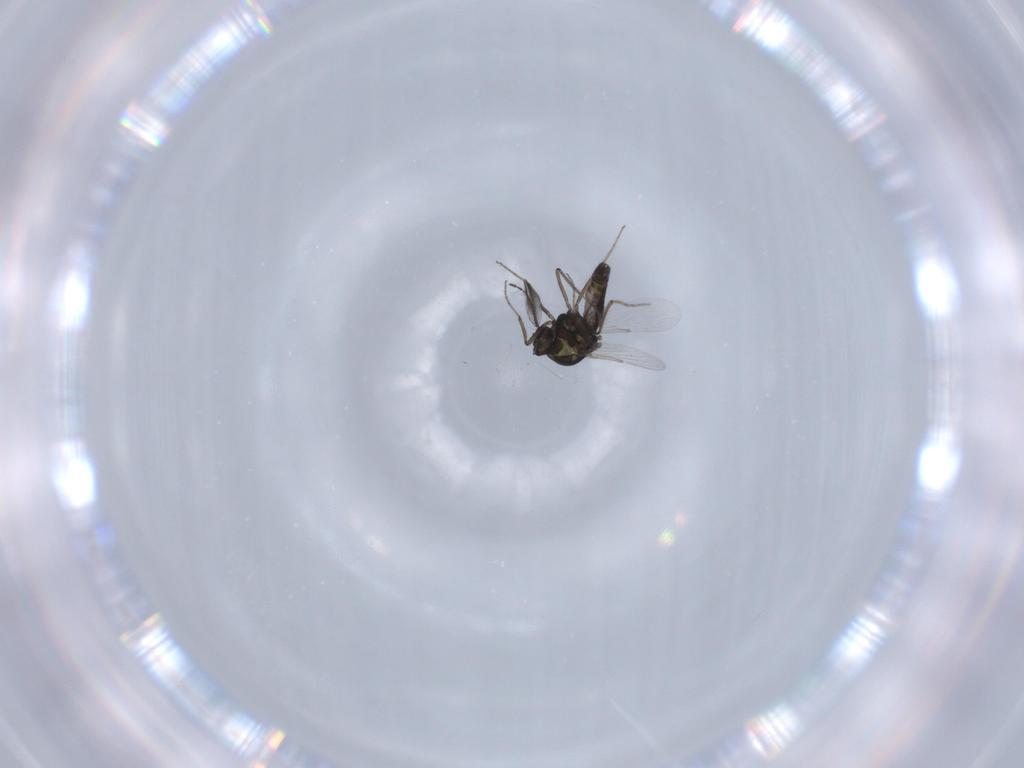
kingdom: Animalia
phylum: Arthropoda
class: Insecta
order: Diptera
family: Ceratopogonidae
